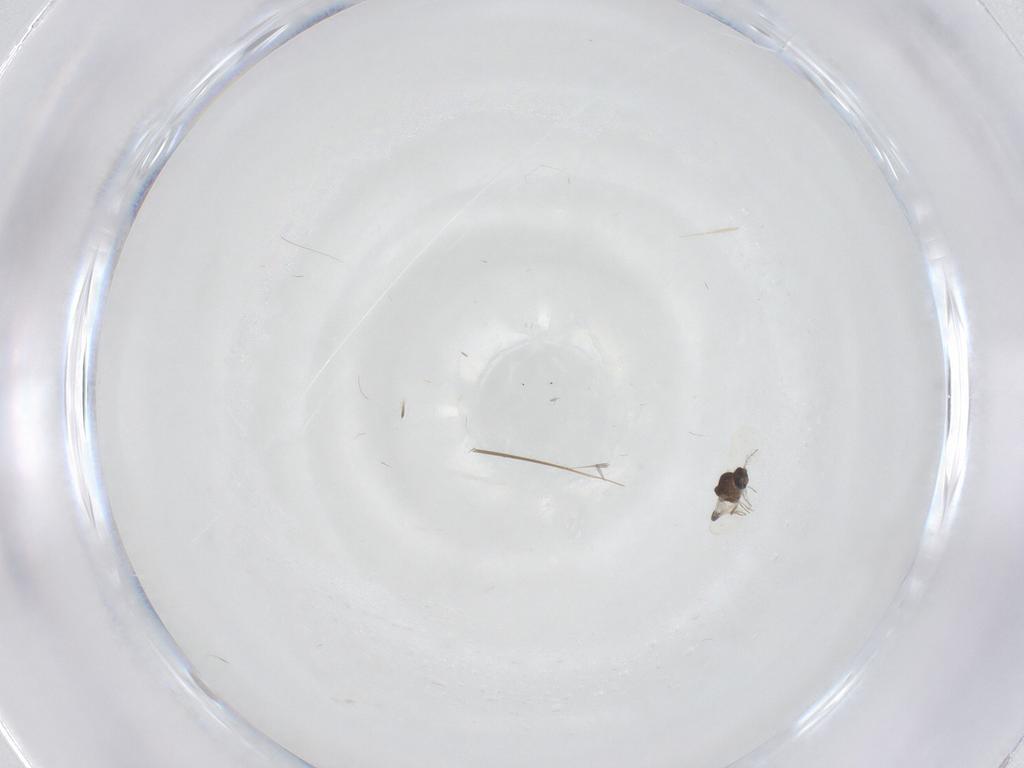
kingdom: Animalia
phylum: Arthropoda
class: Insecta
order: Diptera
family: Ceratopogonidae
